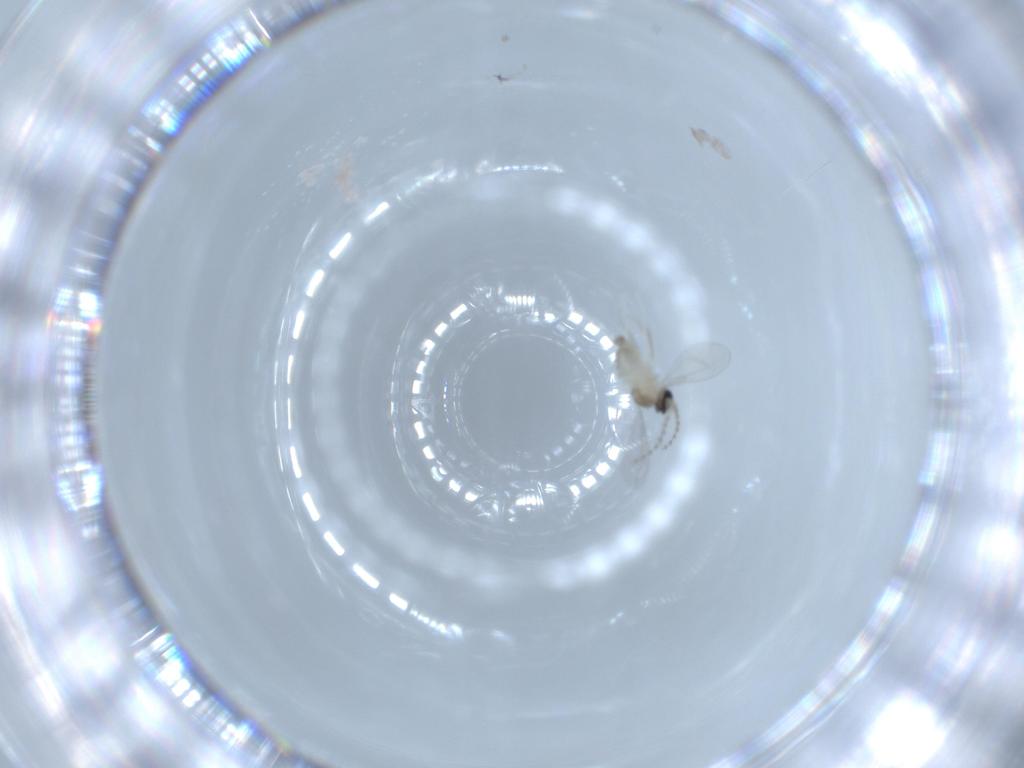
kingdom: Animalia
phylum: Arthropoda
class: Insecta
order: Diptera
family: Cecidomyiidae
